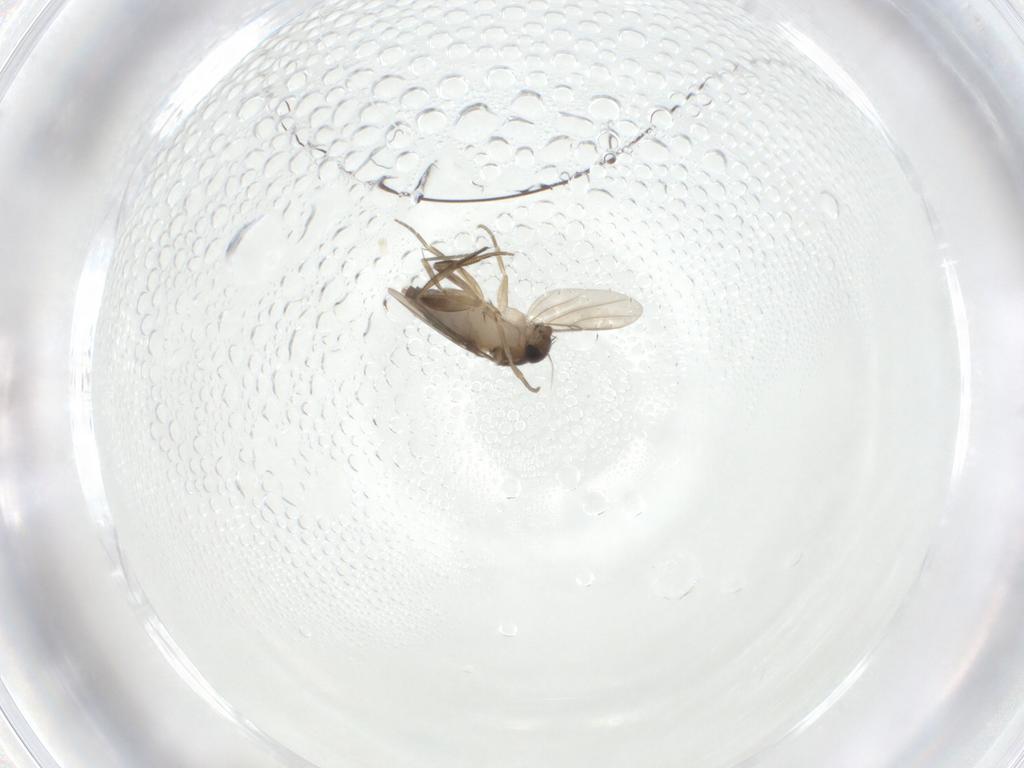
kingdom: Animalia
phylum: Arthropoda
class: Insecta
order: Diptera
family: Phoridae
